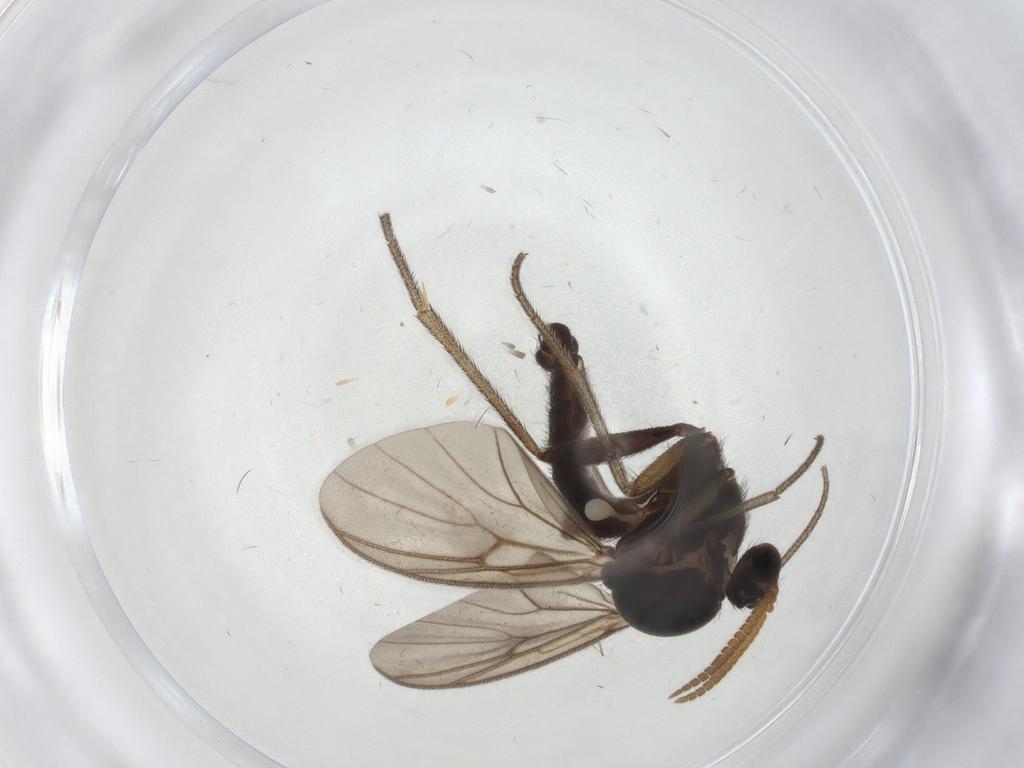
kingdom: Animalia
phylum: Arthropoda
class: Insecta
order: Diptera
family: Mycetophilidae
